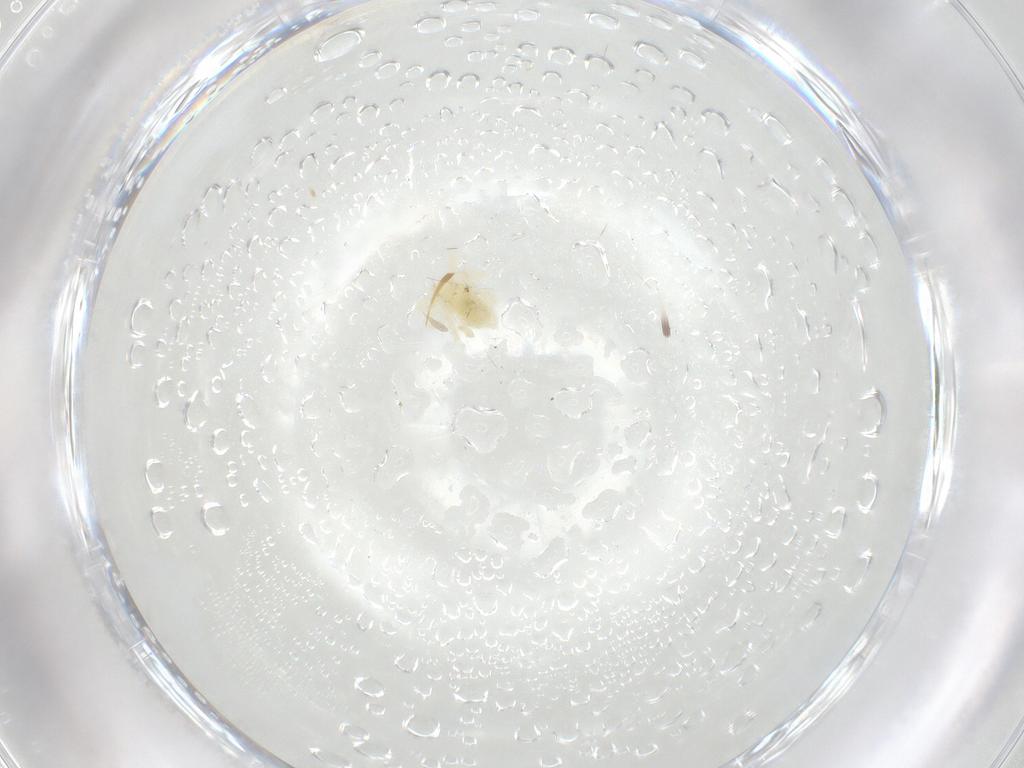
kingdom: Animalia
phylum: Arthropoda
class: Arachnida
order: Trombidiformes
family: Anystidae
